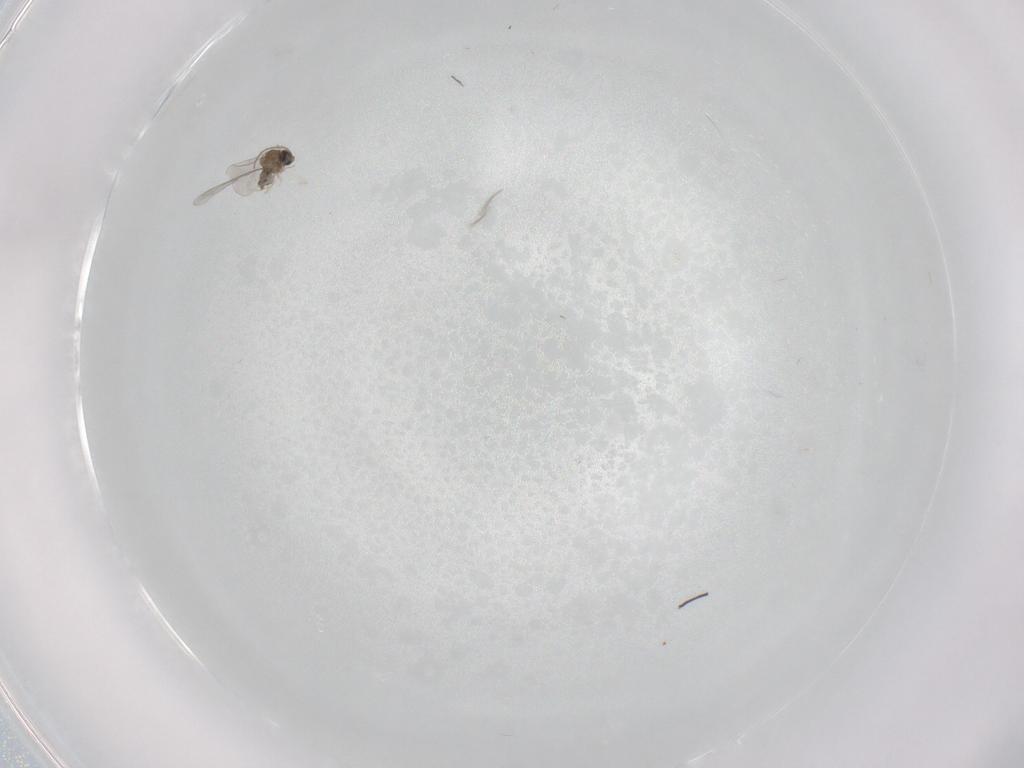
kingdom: Animalia
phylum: Arthropoda
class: Insecta
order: Diptera
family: Cecidomyiidae
